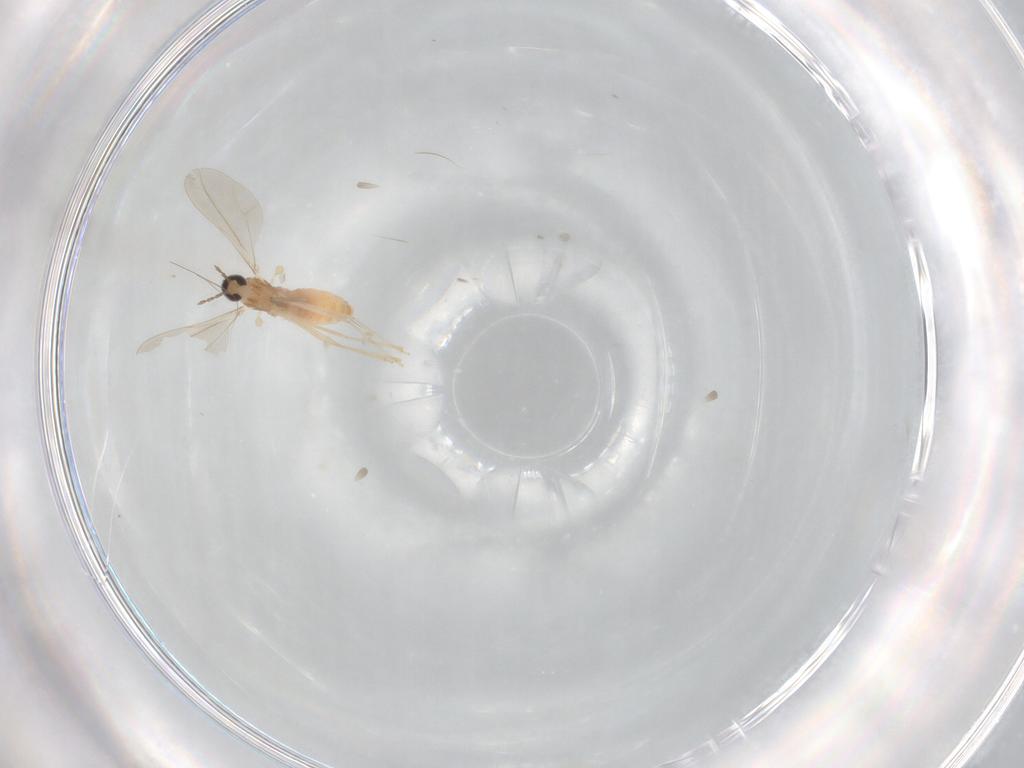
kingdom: Animalia
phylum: Arthropoda
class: Insecta
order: Diptera
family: Cecidomyiidae
